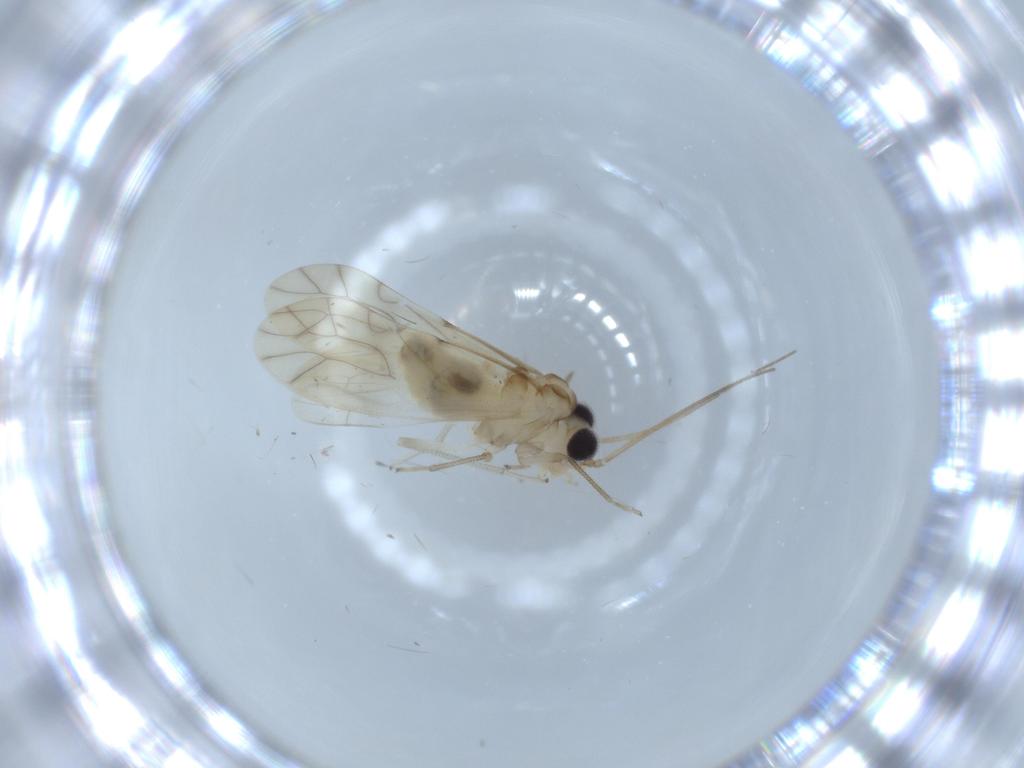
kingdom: Animalia
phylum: Arthropoda
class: Insecta
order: Psocodea
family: Caeciliusidae
